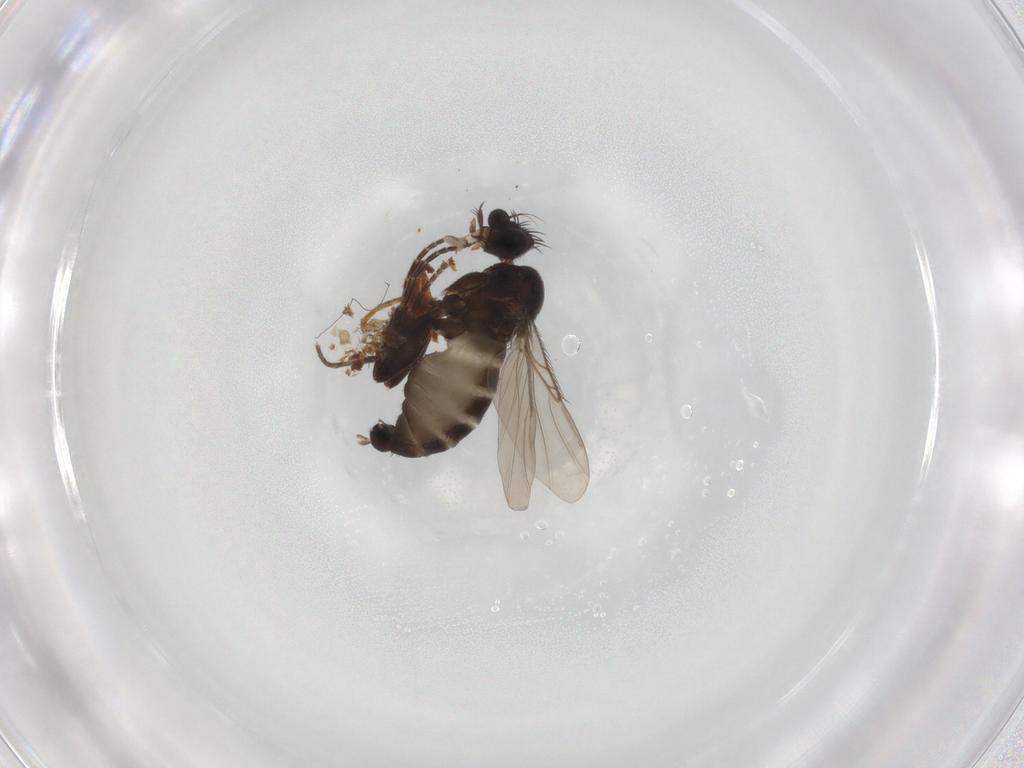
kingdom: Animalia
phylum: Arthropoda
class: Insecta
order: Diptera
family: Phoridae
